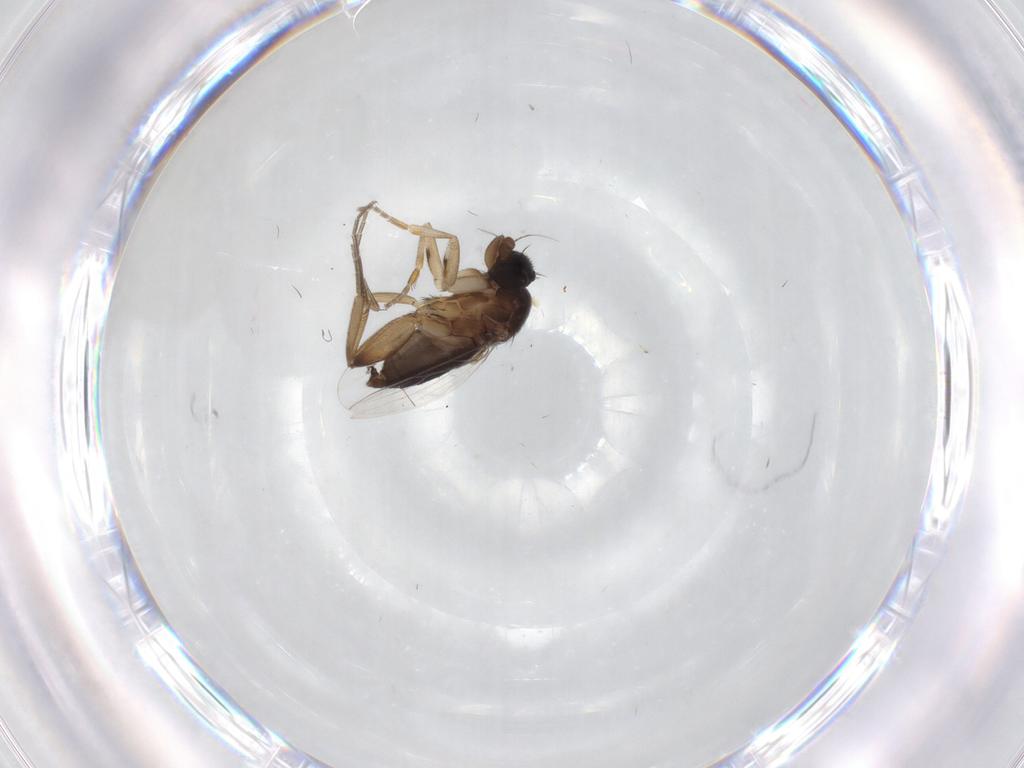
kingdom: Animalia
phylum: Arthropoda
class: Insecta
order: Diptera
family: Phoridae
